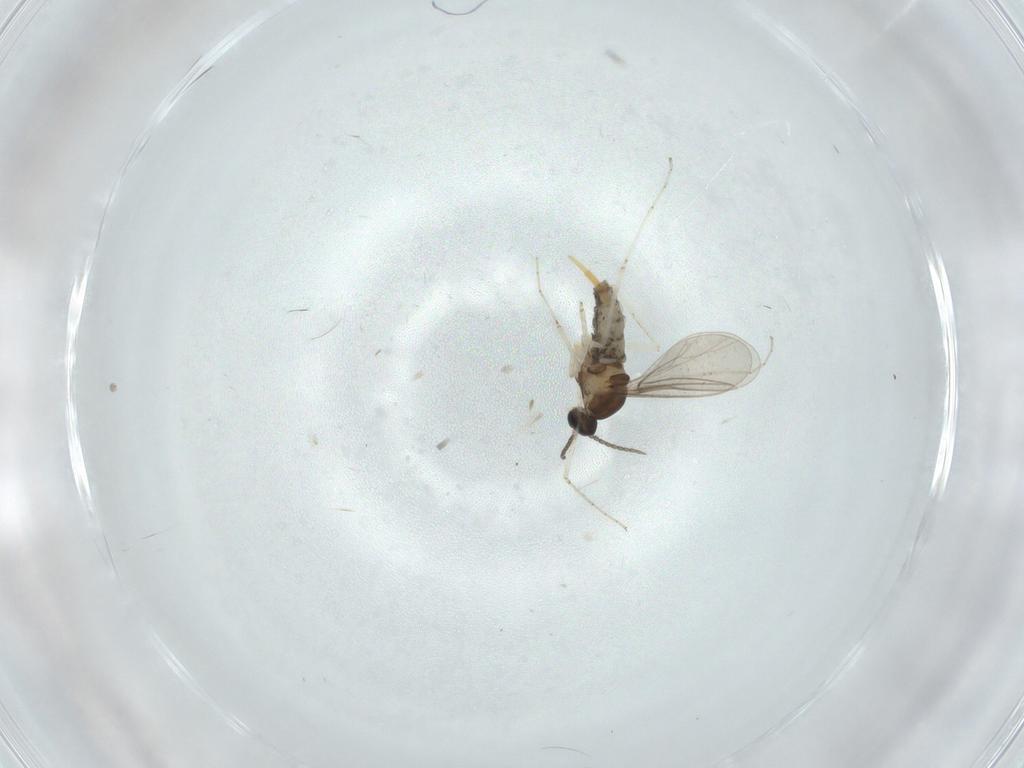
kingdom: Animalia
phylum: Arthropoda
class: Insecta
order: Diptera
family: Cecidomyiidae
